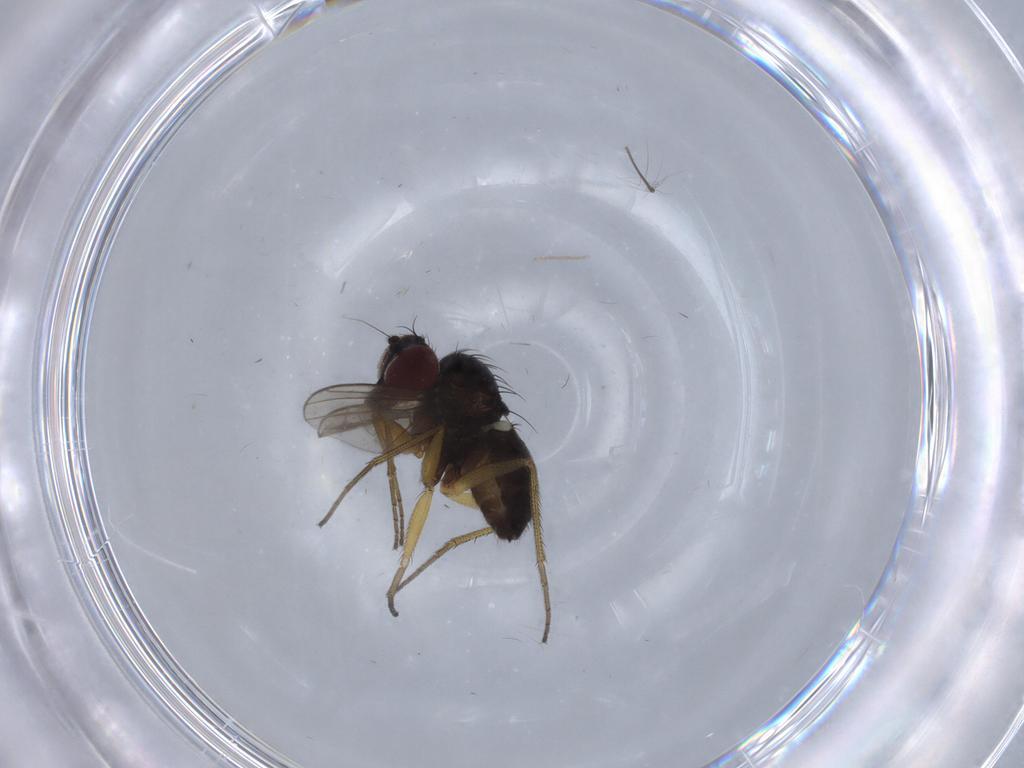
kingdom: Animalia
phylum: Arthropoda
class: Insecta
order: Diptera
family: Dolichopodidae
